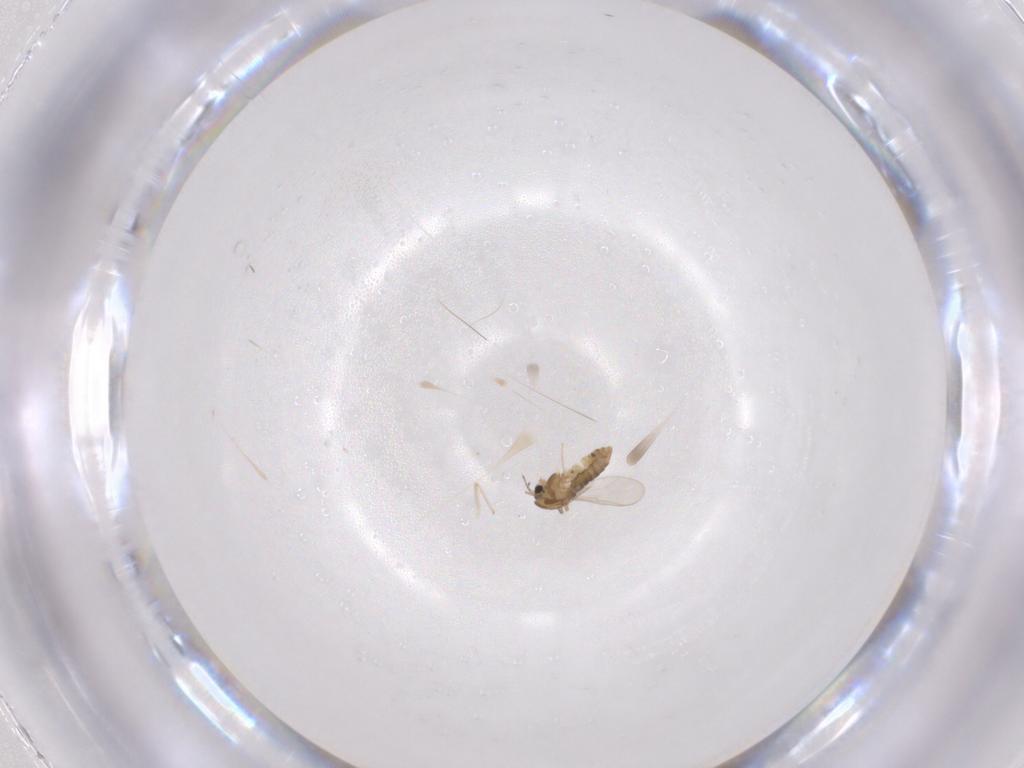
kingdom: Animalia
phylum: Arthropoda
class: Insecta
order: Diptera
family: Chironomidae
